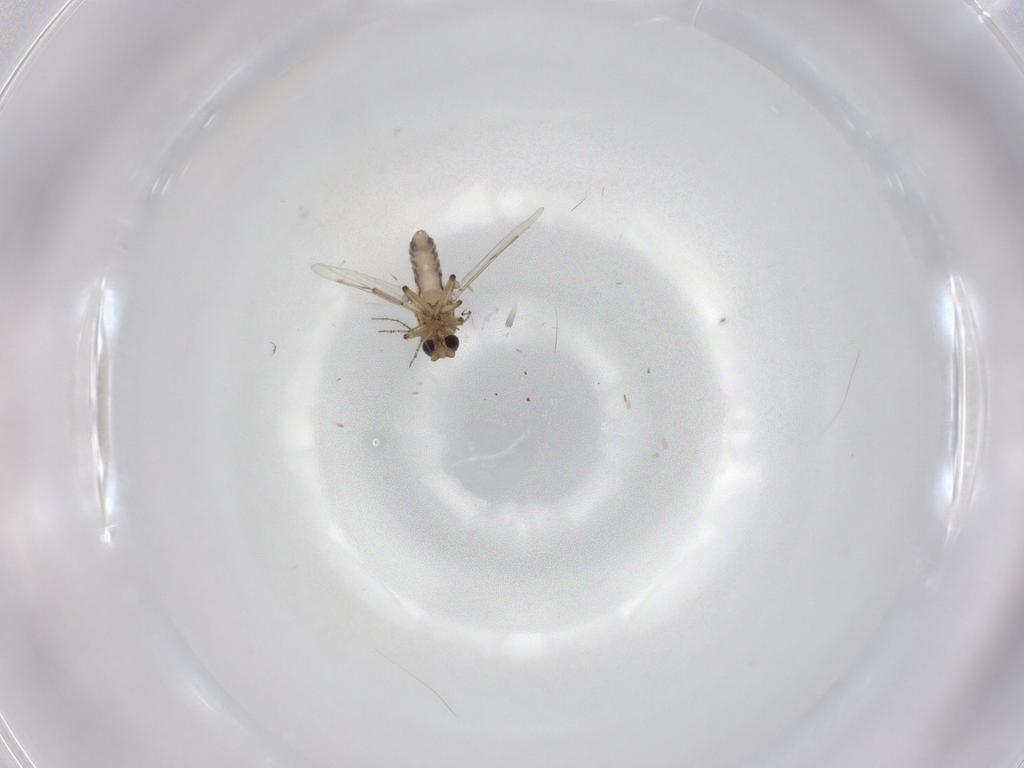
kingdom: Animalia
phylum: Arthropoda
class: Insecta
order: Diptera
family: Ceratopogonidae
